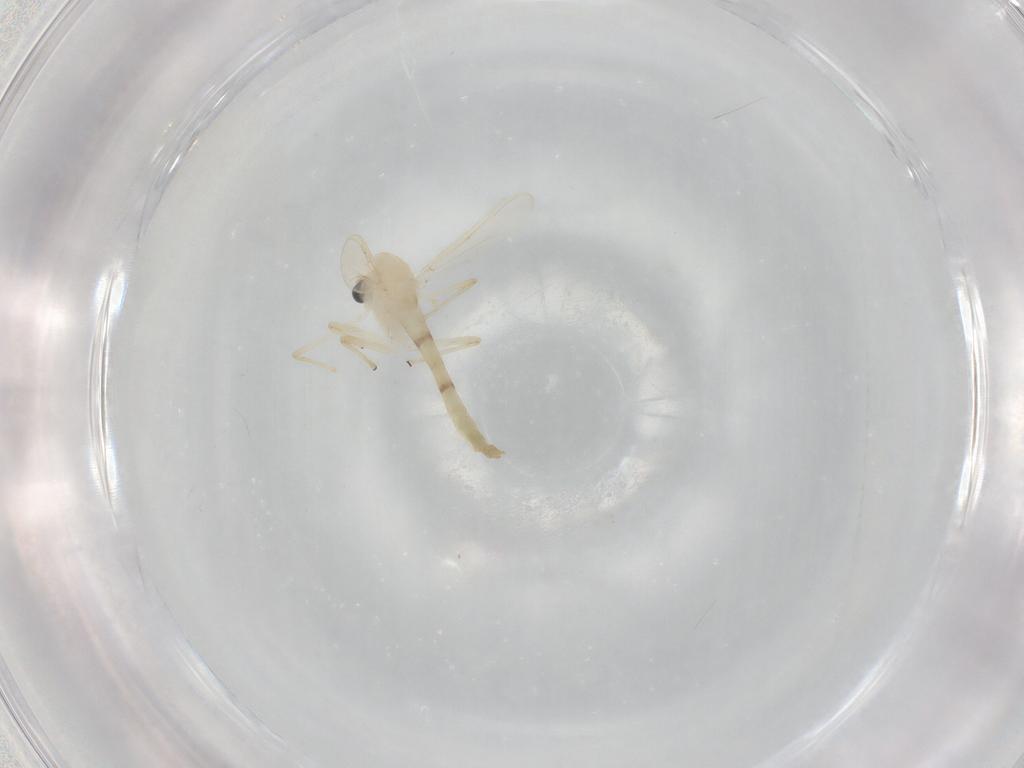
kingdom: Animalia
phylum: Arthropoda
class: Insecta
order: Diptera
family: Chironomidae
